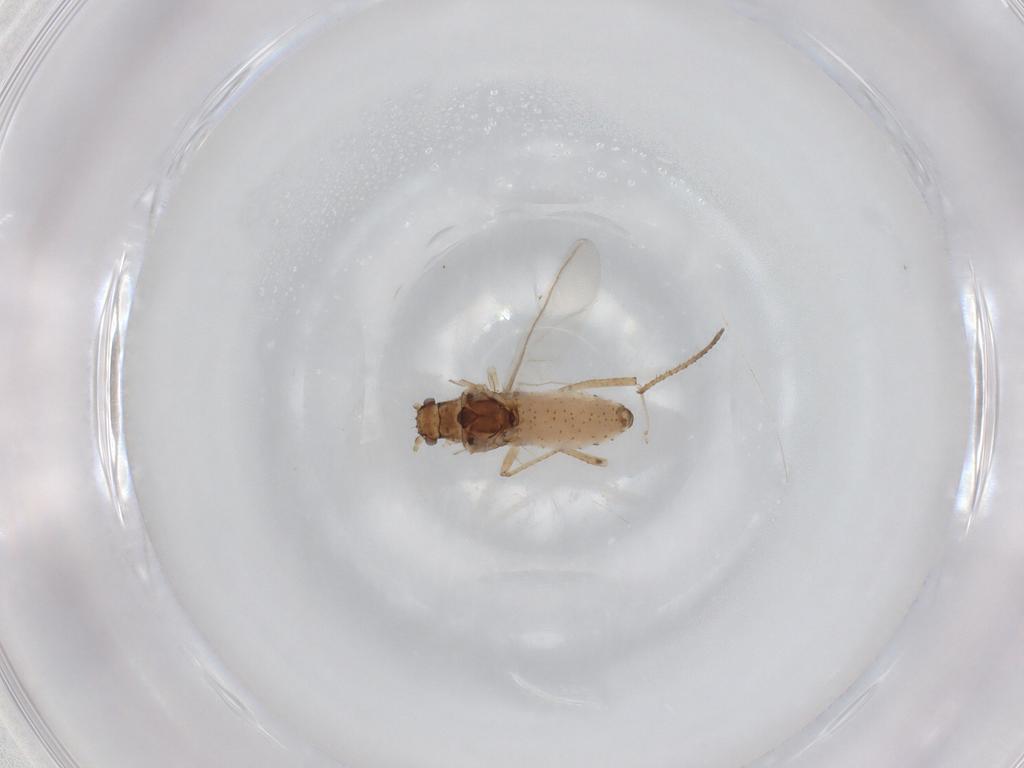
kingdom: Animalia
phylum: Arthropoda
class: Insecta
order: Hemiptera
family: Aphididae
